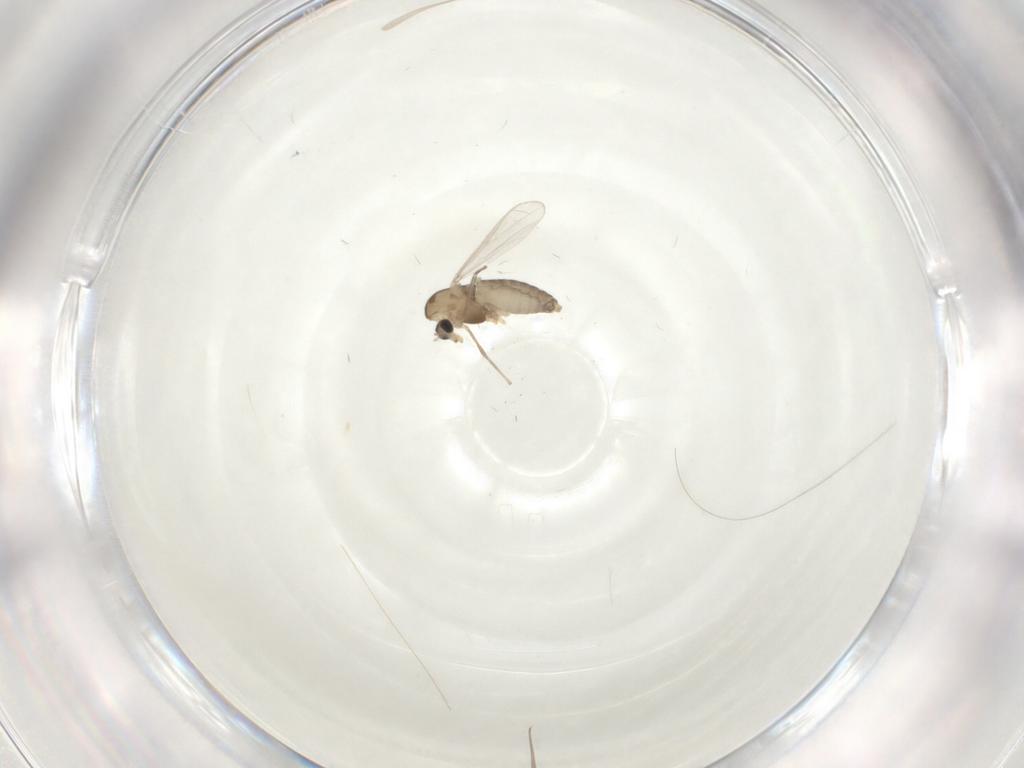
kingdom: Animalia
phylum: Arthropoda
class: Insecta
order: Diptera
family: Chironomidae
